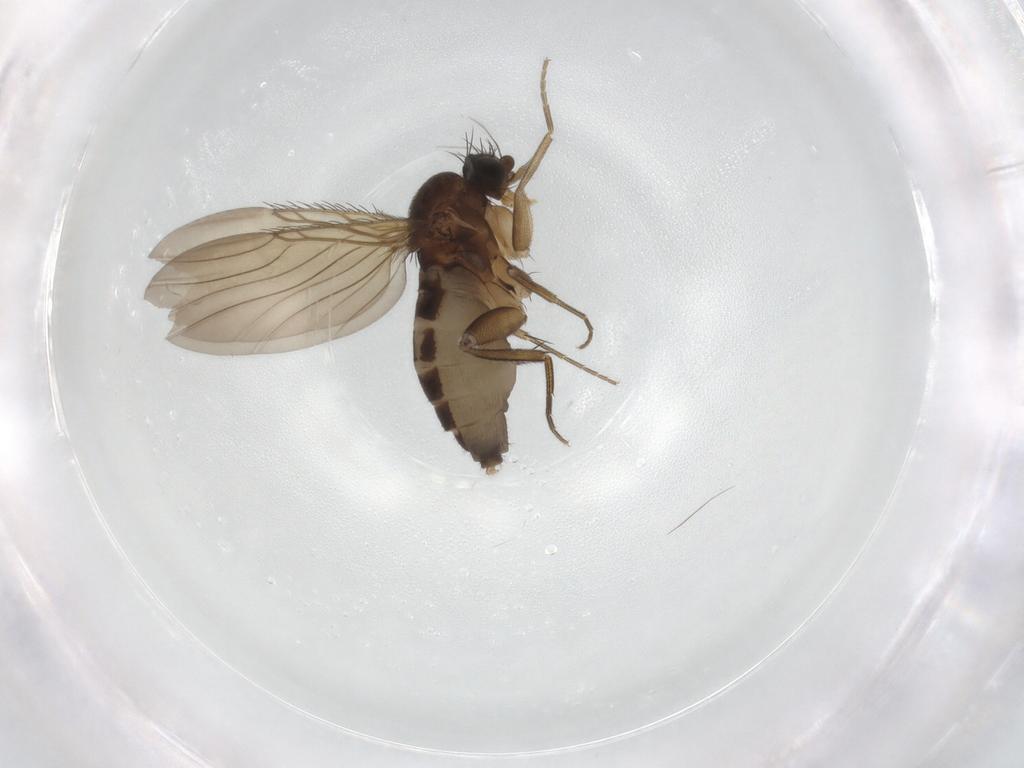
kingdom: Animalia
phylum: Arthropoda
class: Insecta
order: Diptera
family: Phoridae
